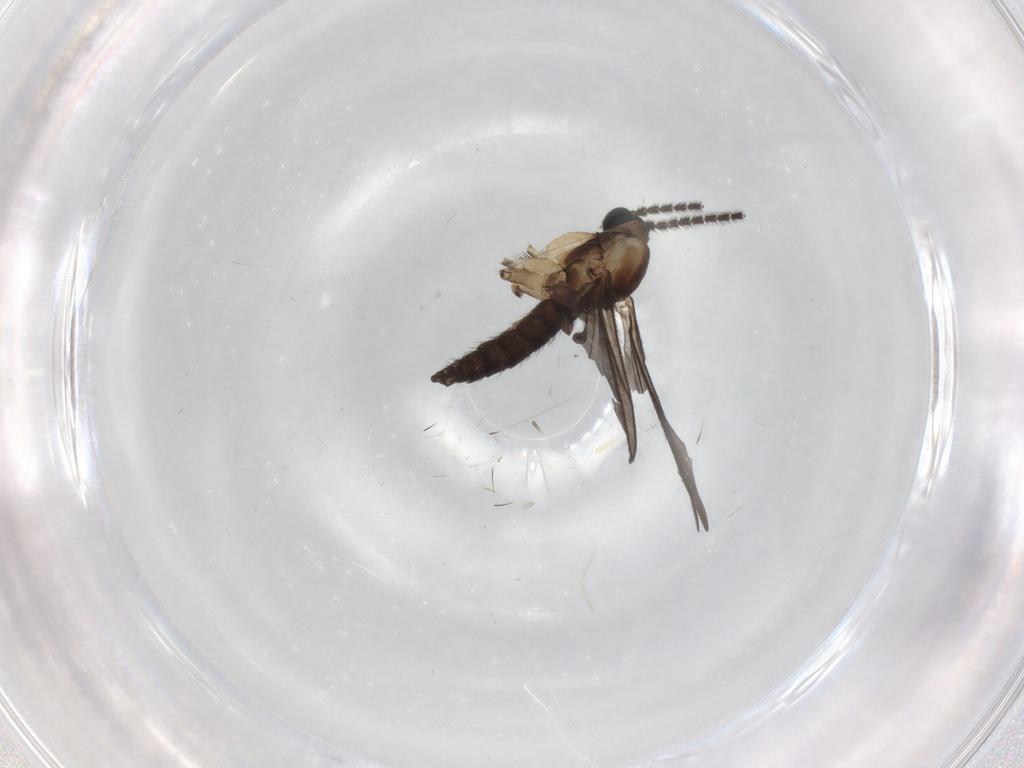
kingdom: Animalia
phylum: Arthropoda
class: Insecta
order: Diptera
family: Sciaridae
